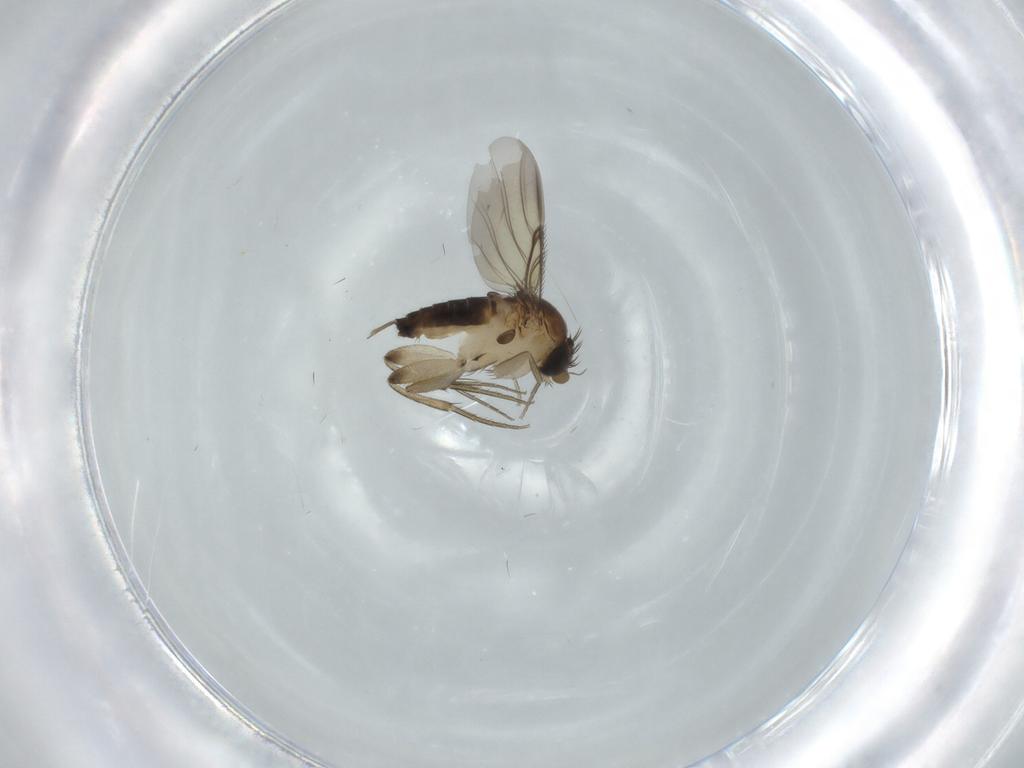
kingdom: Animalia
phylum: Arthropoda
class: Insecta
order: Diptera
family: Phoridae
